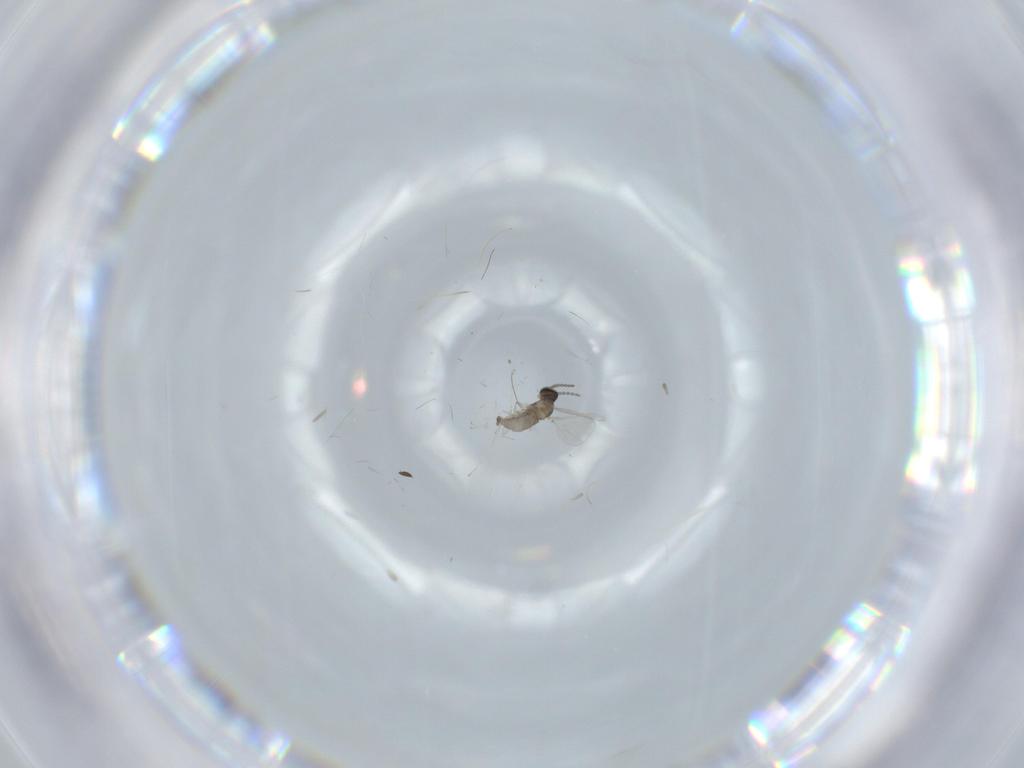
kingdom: Animalia
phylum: Arthropoda
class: Insecta
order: Diptera
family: Cecidomyiidae
